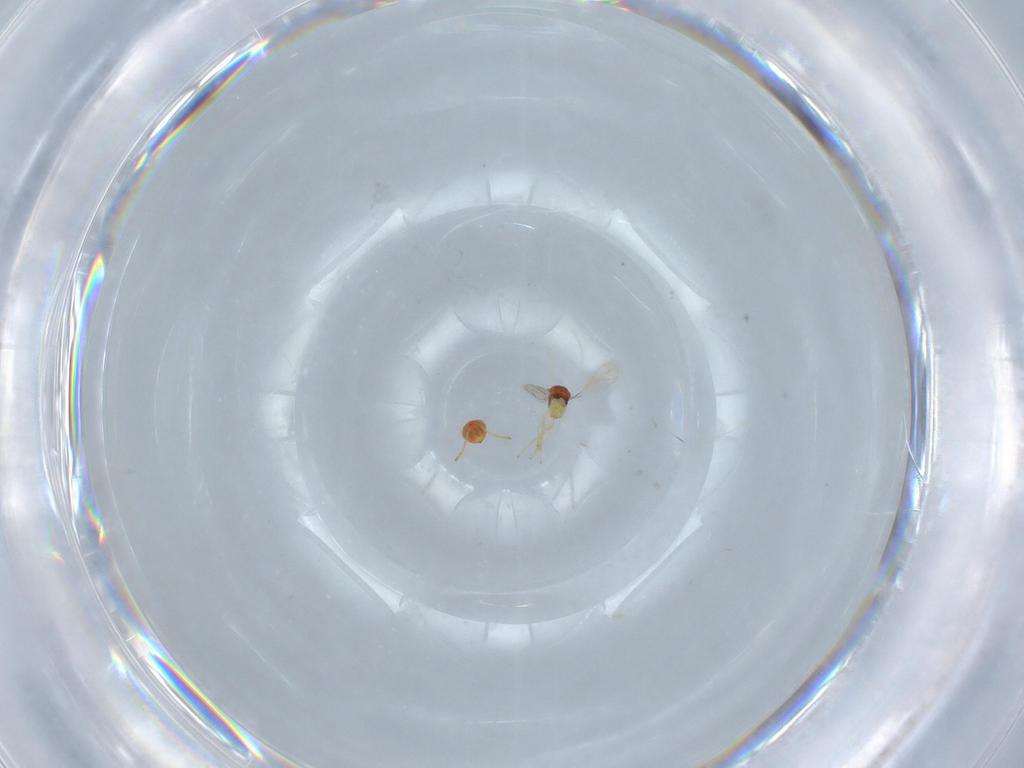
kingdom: Animalia
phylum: Arthropoda
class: Insecta
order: Hymenoptera
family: Aphelinidae
